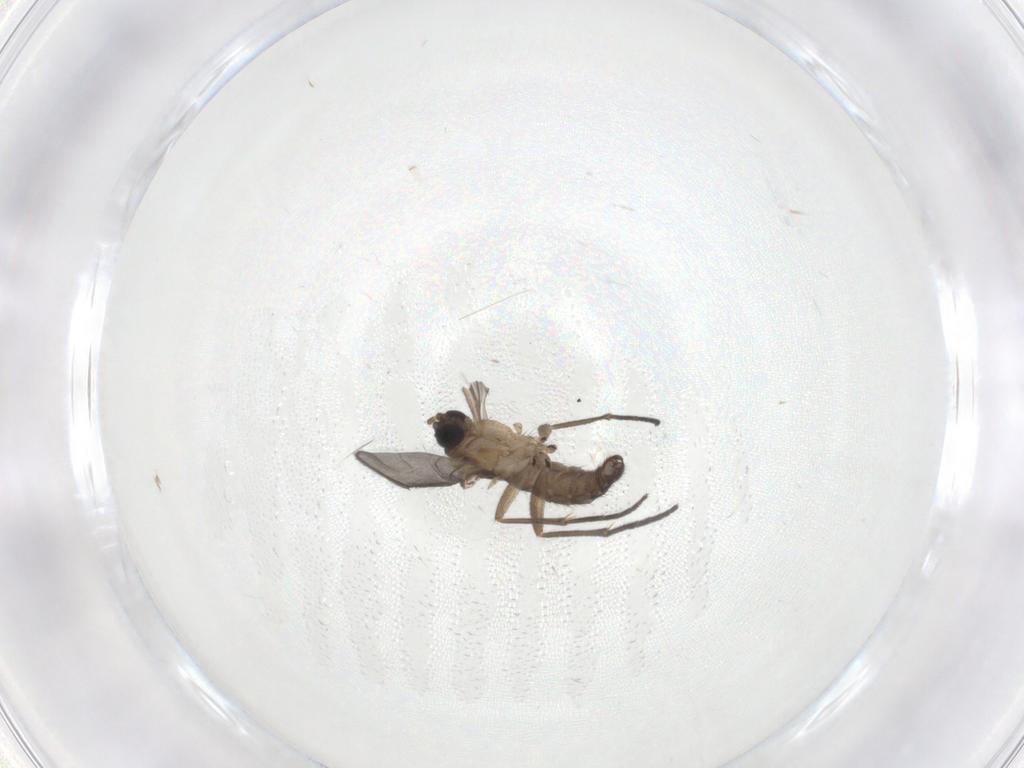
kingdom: Animalia
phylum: Arthropoda
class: Insecta
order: Diptera
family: Sciaridae
